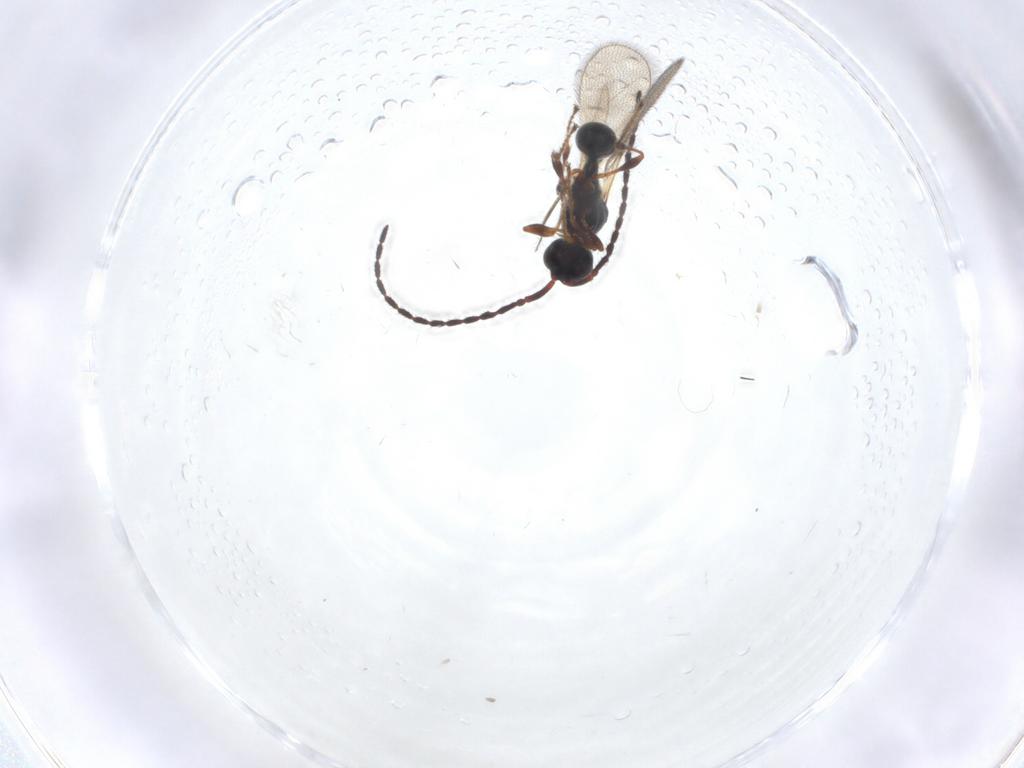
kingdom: Animalia
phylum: Arthropoda
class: Insecta
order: Hymenoptera
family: Diapriidae
